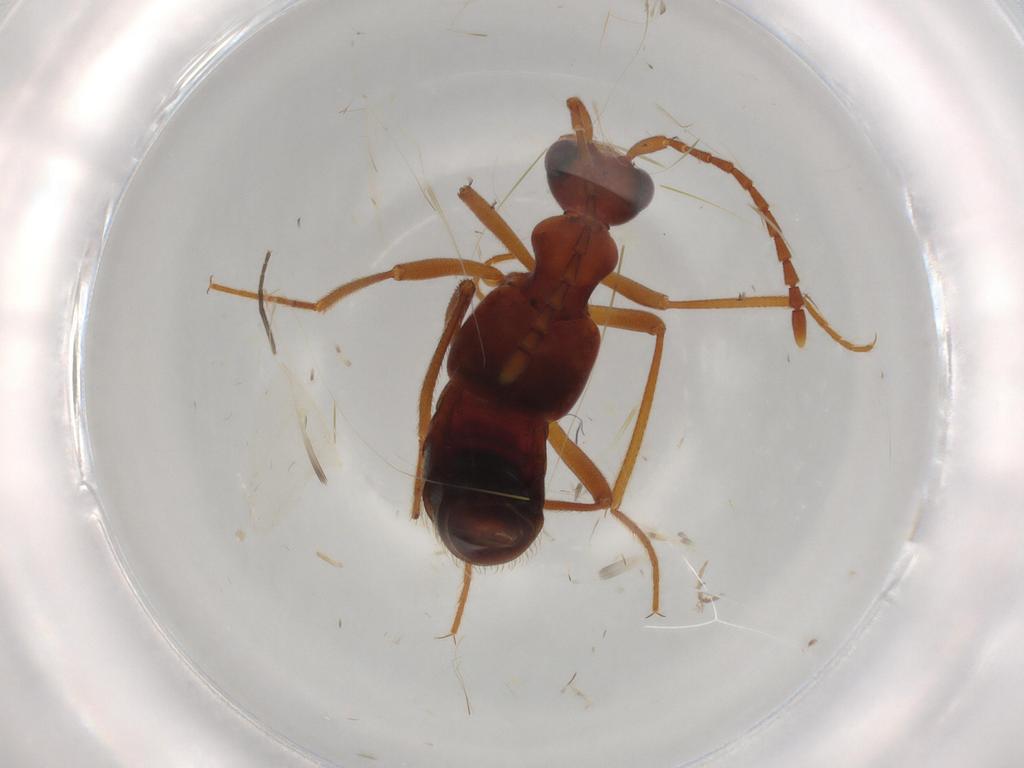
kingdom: Animalia
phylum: Arthropoda
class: Insecta
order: Coleoptera
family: Staphylinidae
